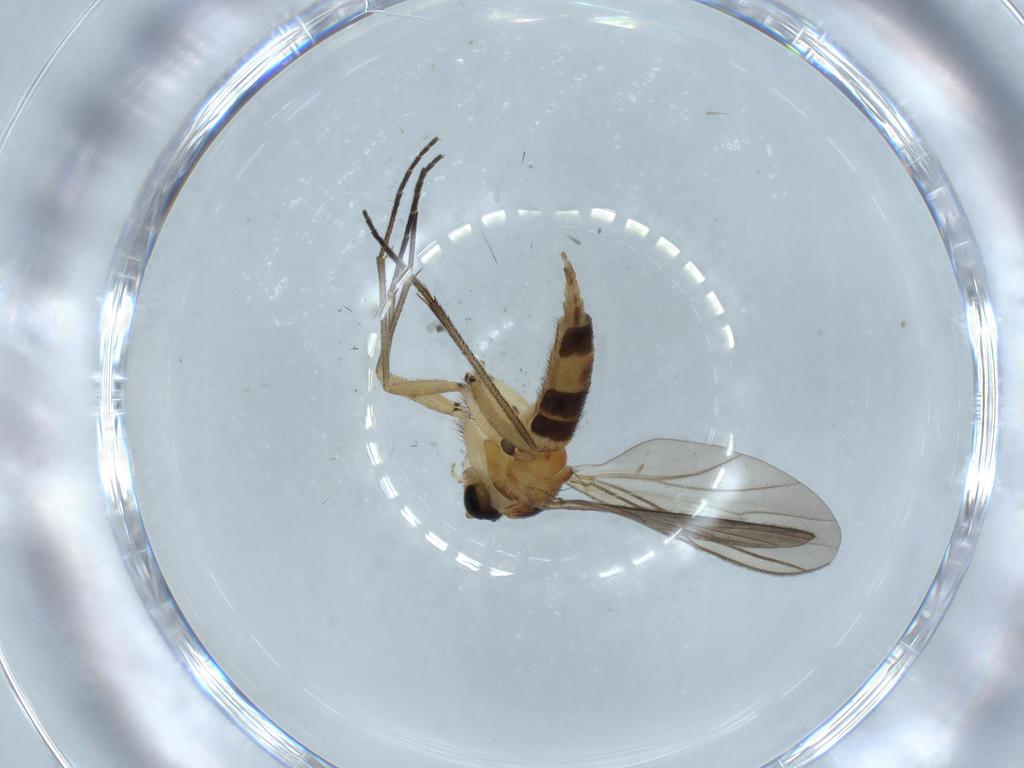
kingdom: Animalia
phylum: Arthropoda
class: Insecta
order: Diptera
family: Sciaridae
